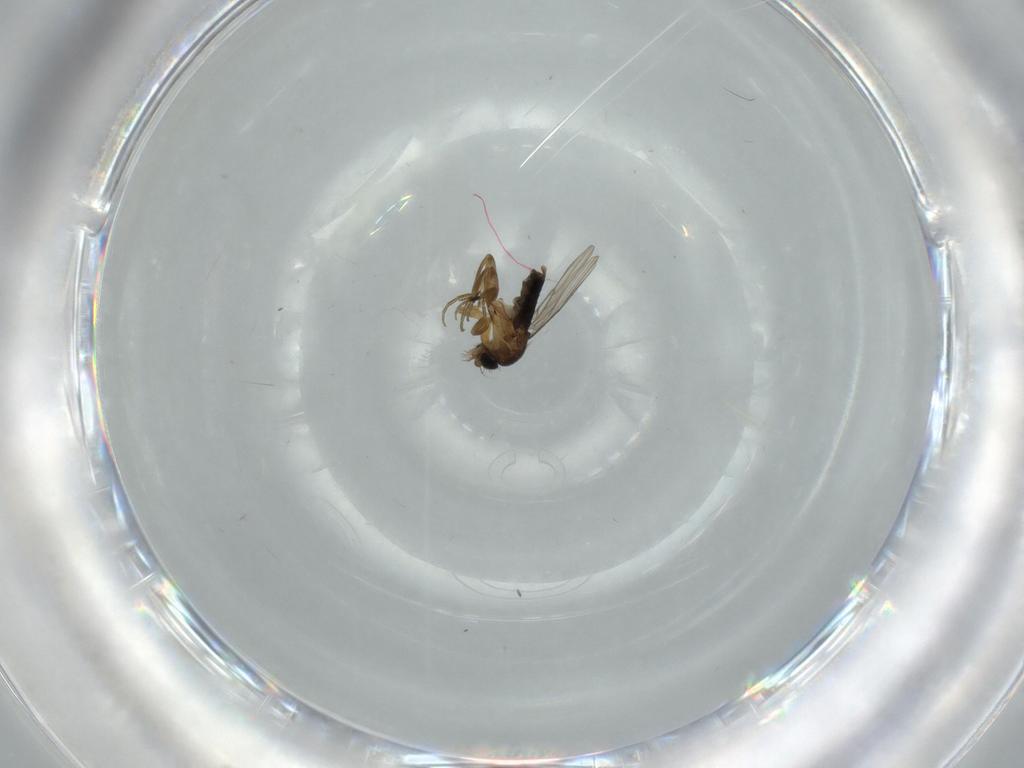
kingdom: Animalia
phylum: Arthropoda
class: Insecta
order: Diptera
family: Phoridae
